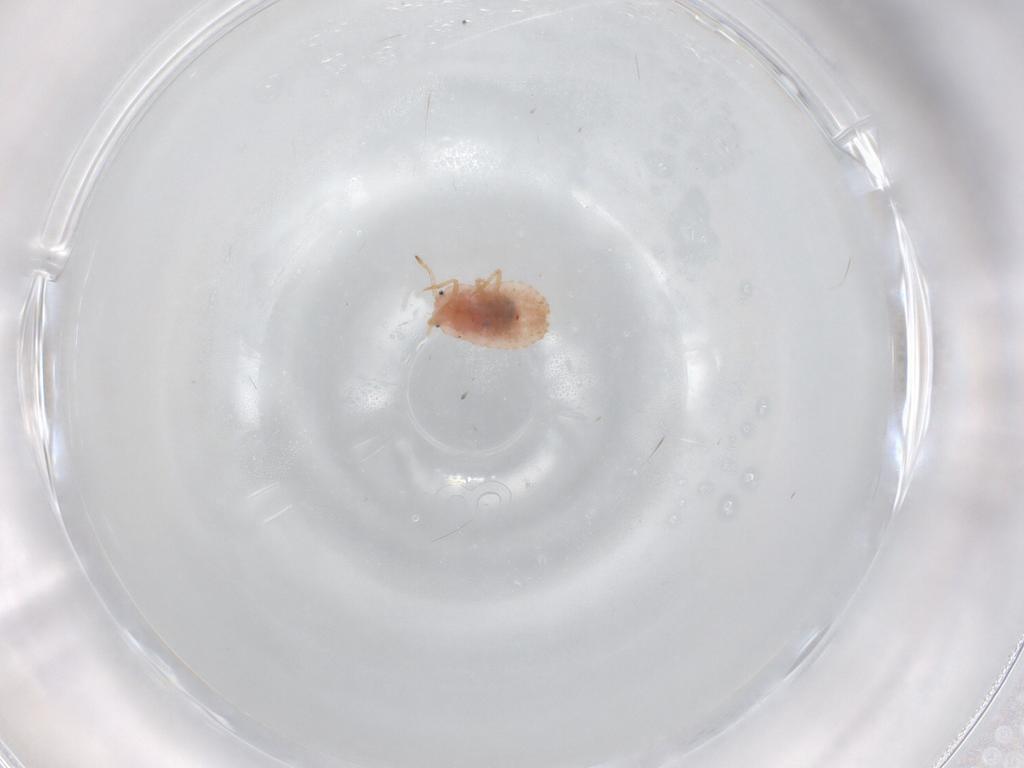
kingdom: Animalia
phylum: Arthropoda
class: Insecta
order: Hemiptera
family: Coccoidea_incertae_sedis
